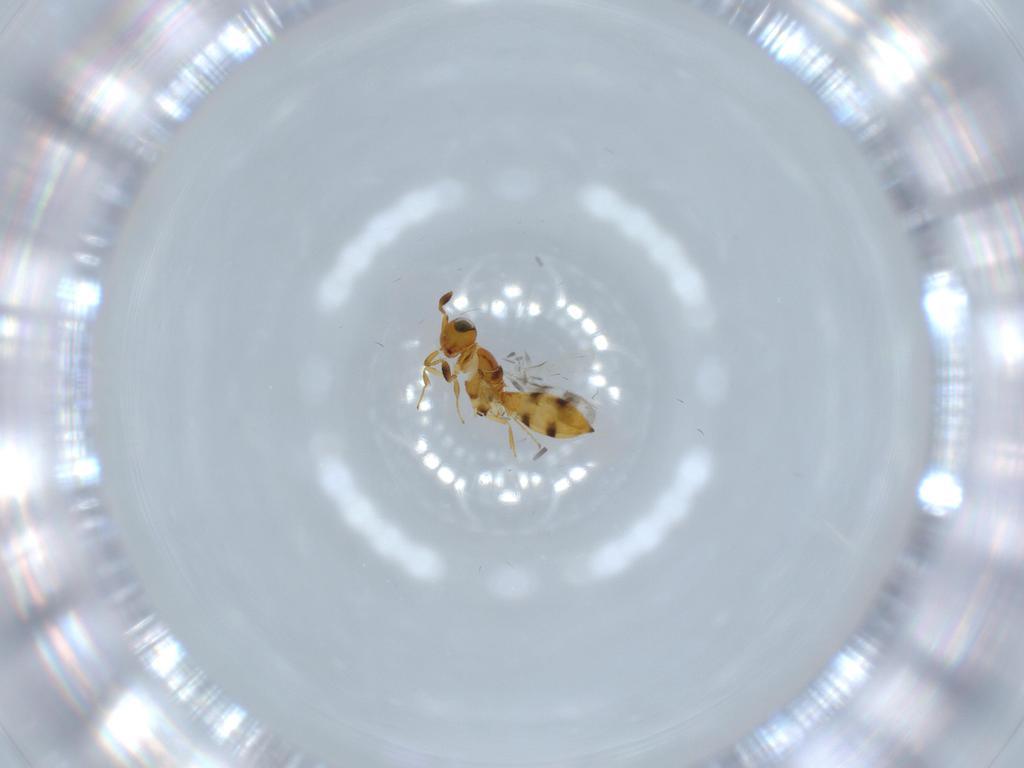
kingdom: Animalia
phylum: Arthropoda
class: Insecta
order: Hymenoptera
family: Scelionidae
